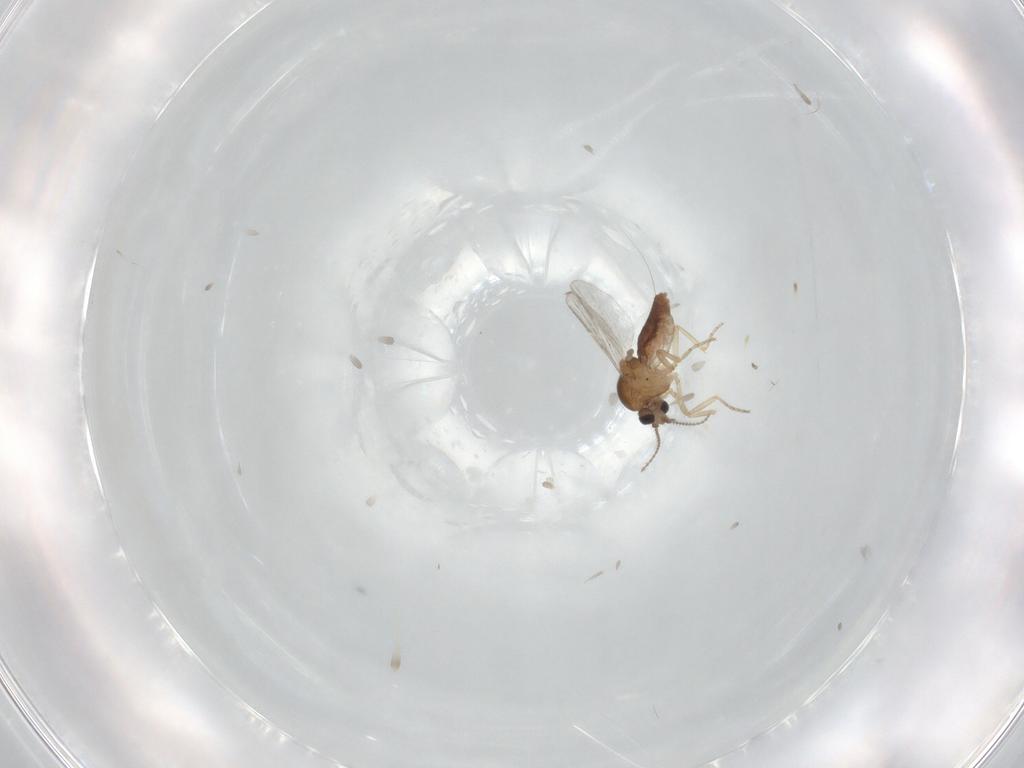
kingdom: Animalia
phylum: Arthropoda
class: Insecta
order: Diptera
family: Ceratopogonidae
